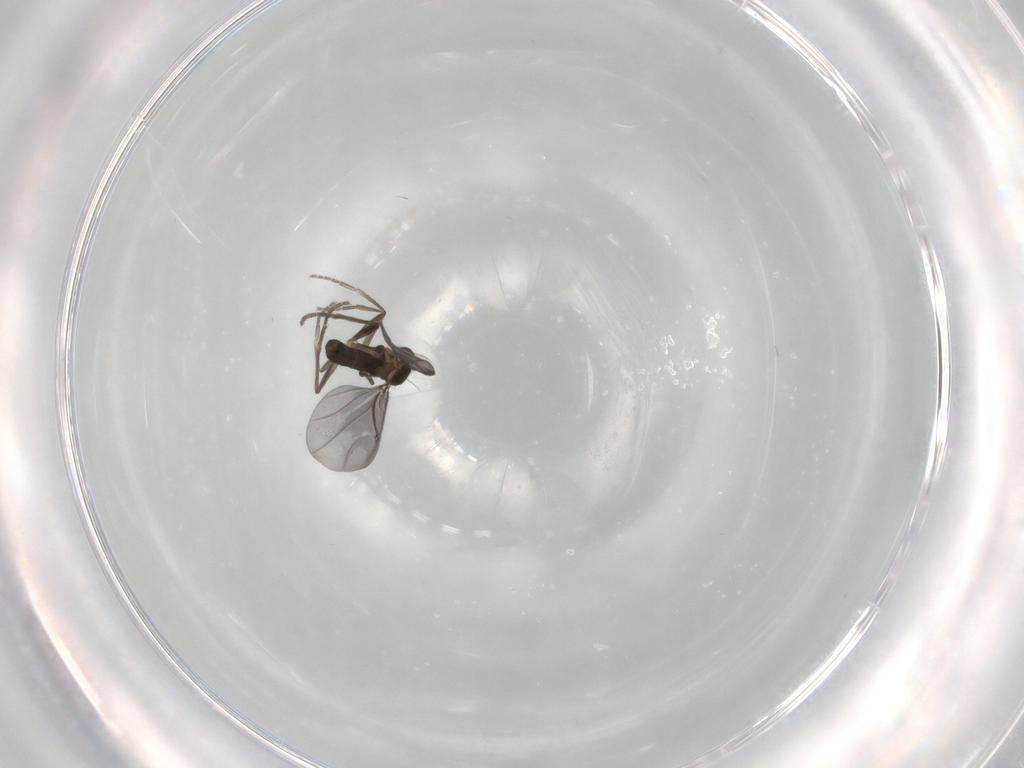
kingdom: Animalia
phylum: Arthropoda
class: Insecta
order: Diptera
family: Phoridae
